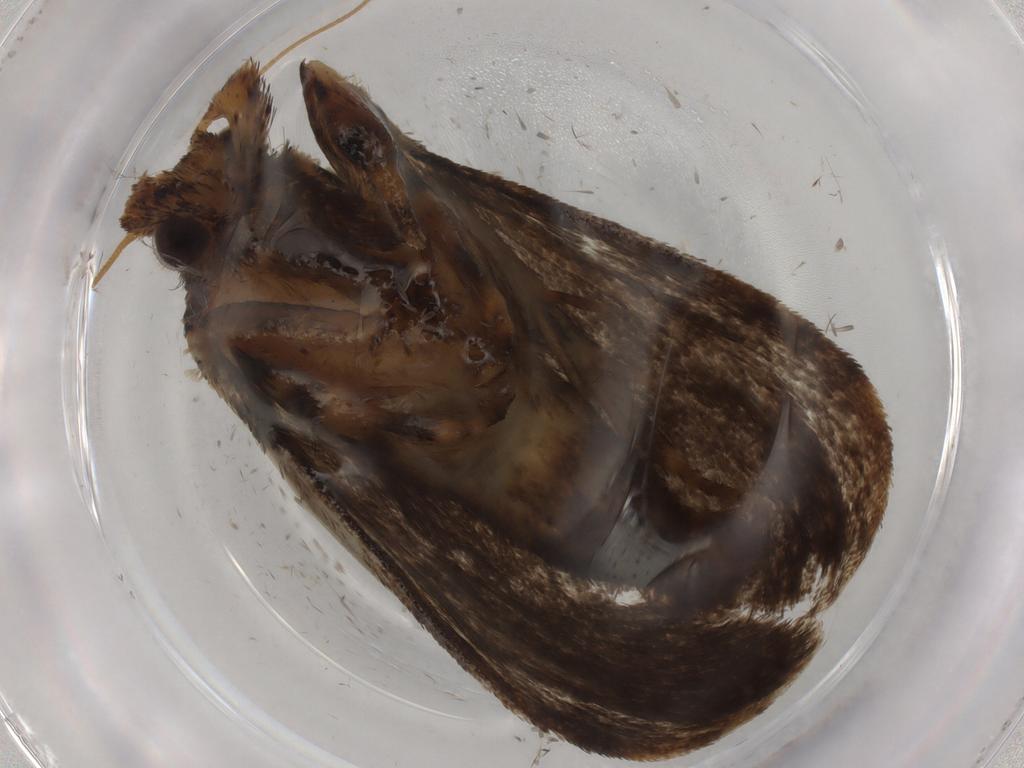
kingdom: Animalia
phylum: Arthropoda
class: Insecta
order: Lepidoptera
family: Tineidae
